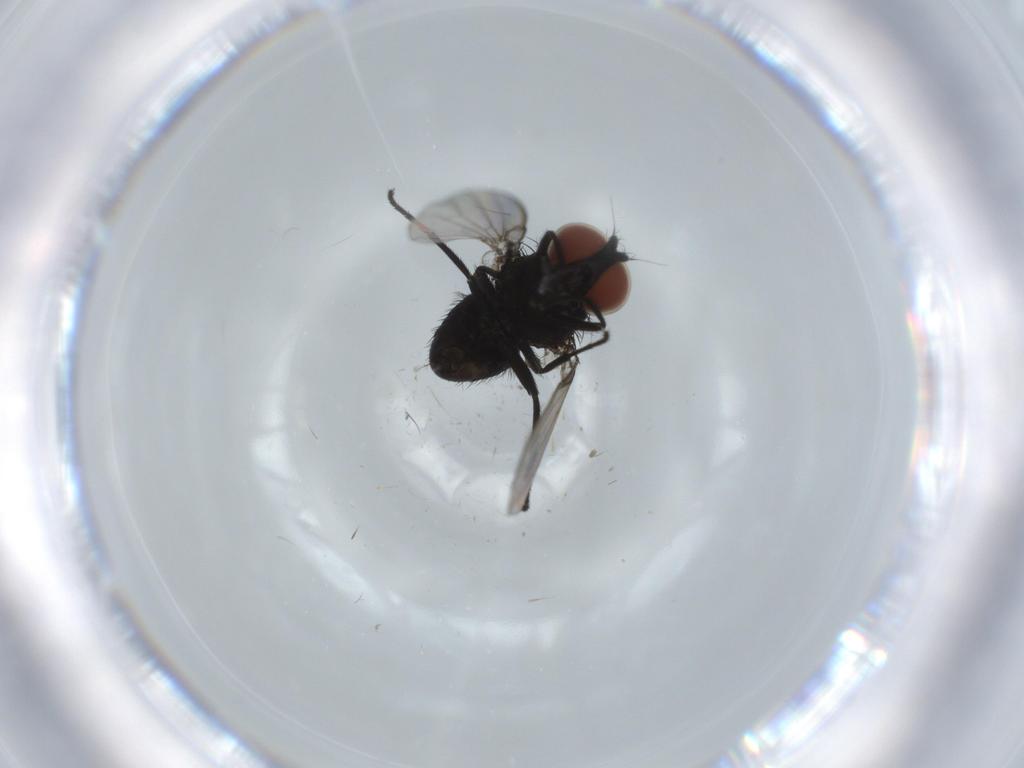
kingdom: Animalia
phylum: Arthropoda
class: Insecta
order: Diptera
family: Milichiidae
